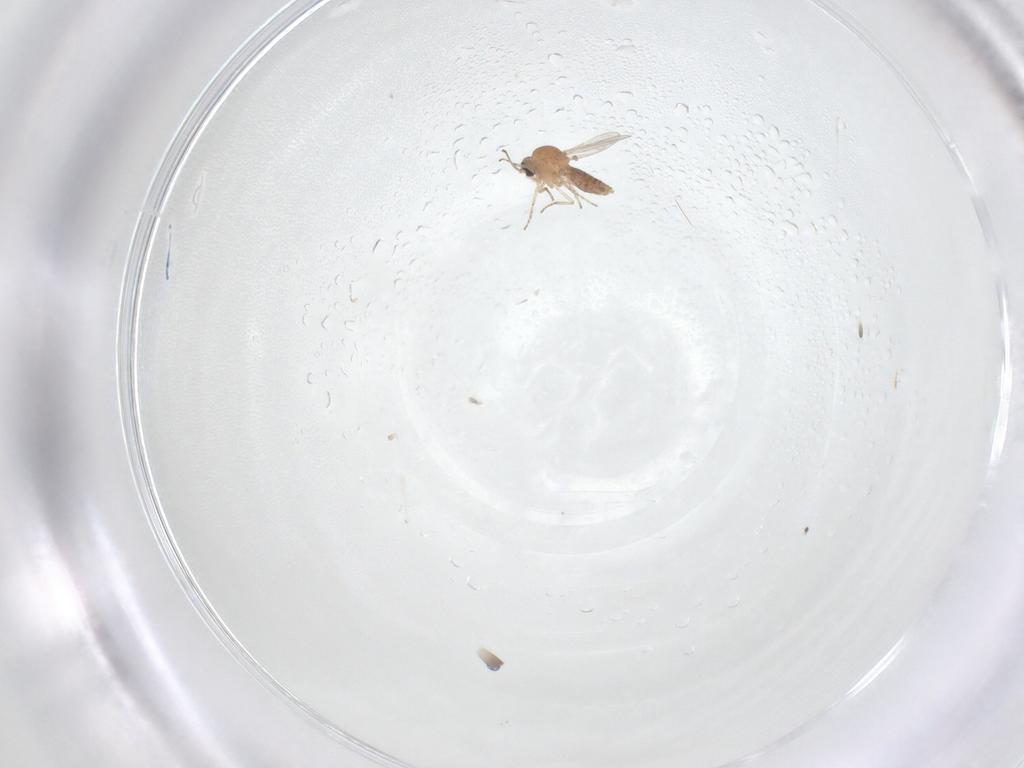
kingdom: Animalia
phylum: Arthropoda
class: Insecta
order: Diptera
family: Ceratopogonidae
